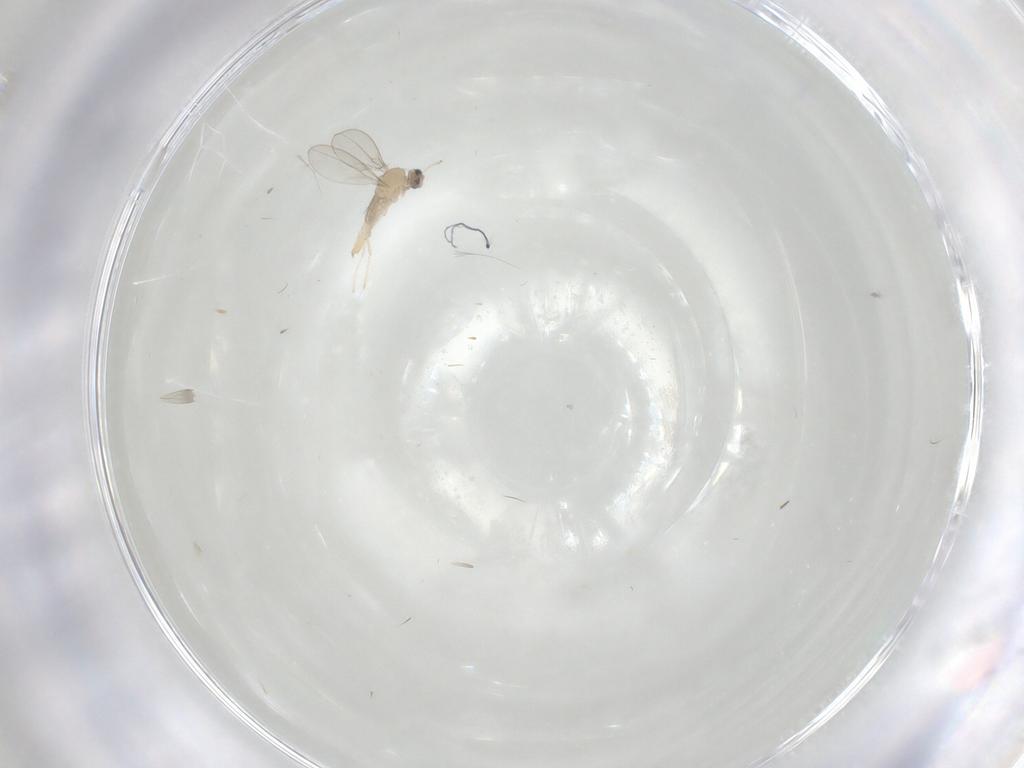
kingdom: Animalia
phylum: Arthropoda
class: Insecta
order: Diptera
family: Cecidomyiidae
